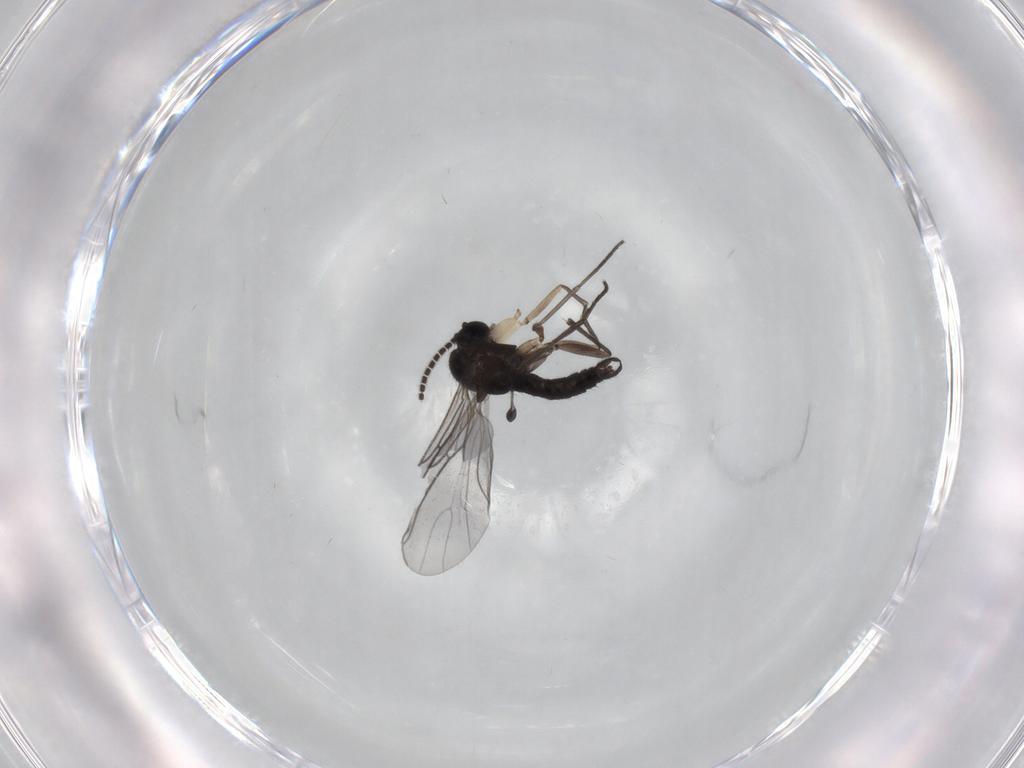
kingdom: Animalia
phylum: Arthropoda
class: Insecta
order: Diptera
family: Sciaridae
